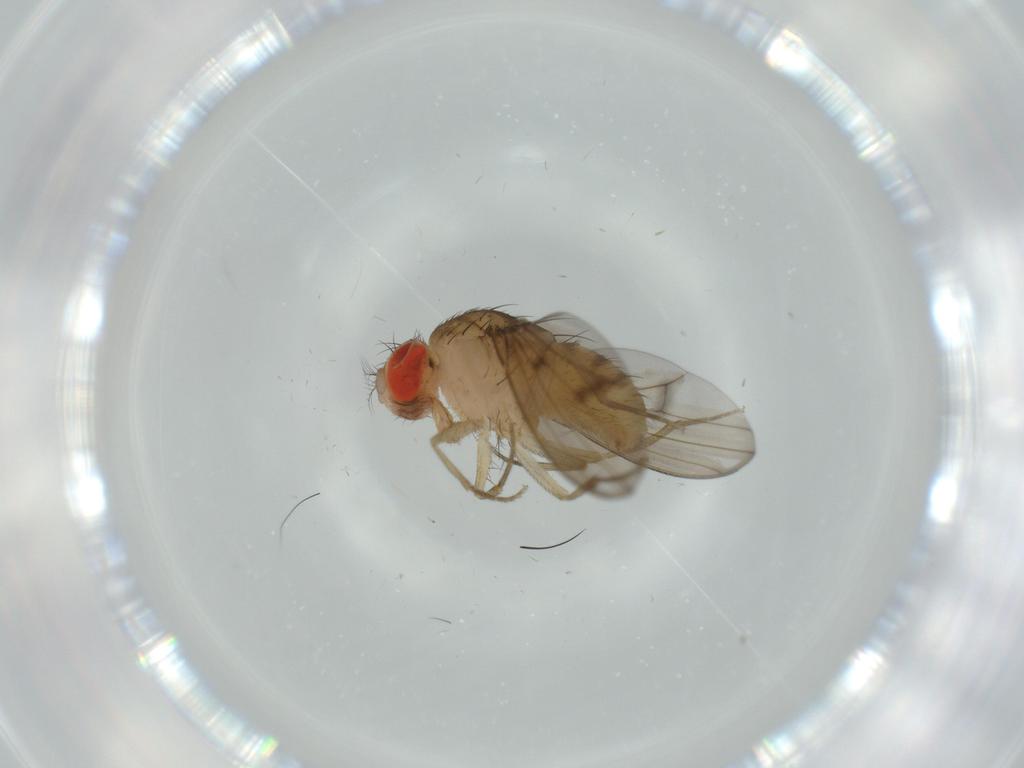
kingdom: Animalia
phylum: Arthropoda
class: Insecta
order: Diptera
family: Drosophilidae
